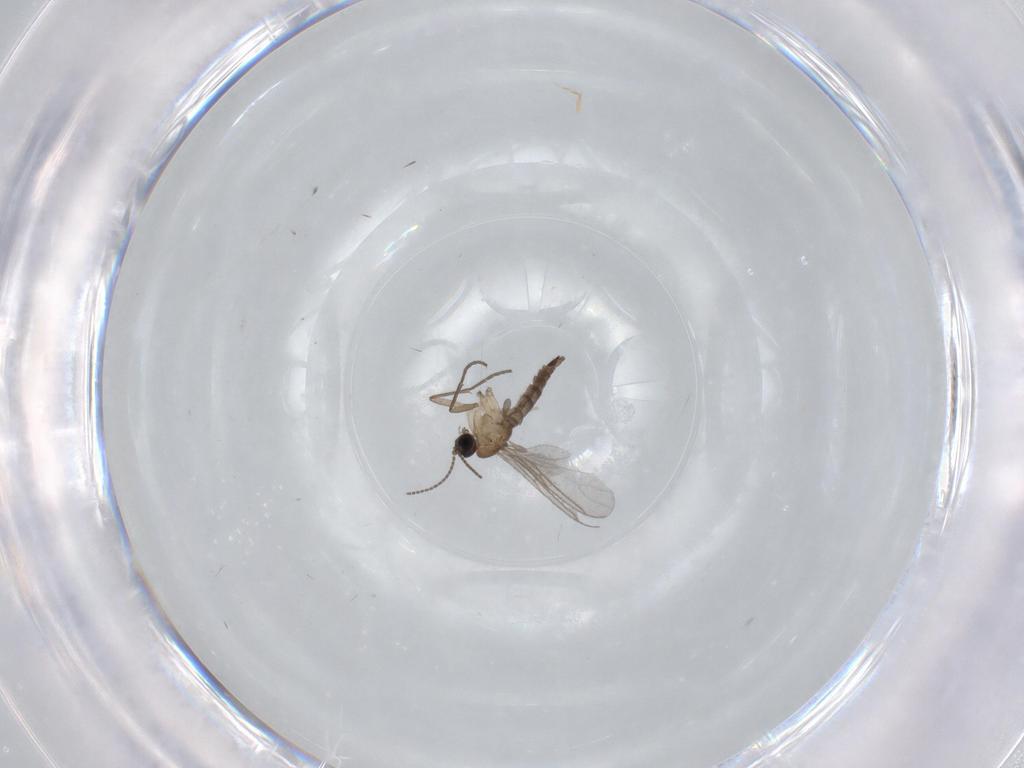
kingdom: Animalia
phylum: Arthropoda
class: Insecta
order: Diptera
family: Sciaridae
